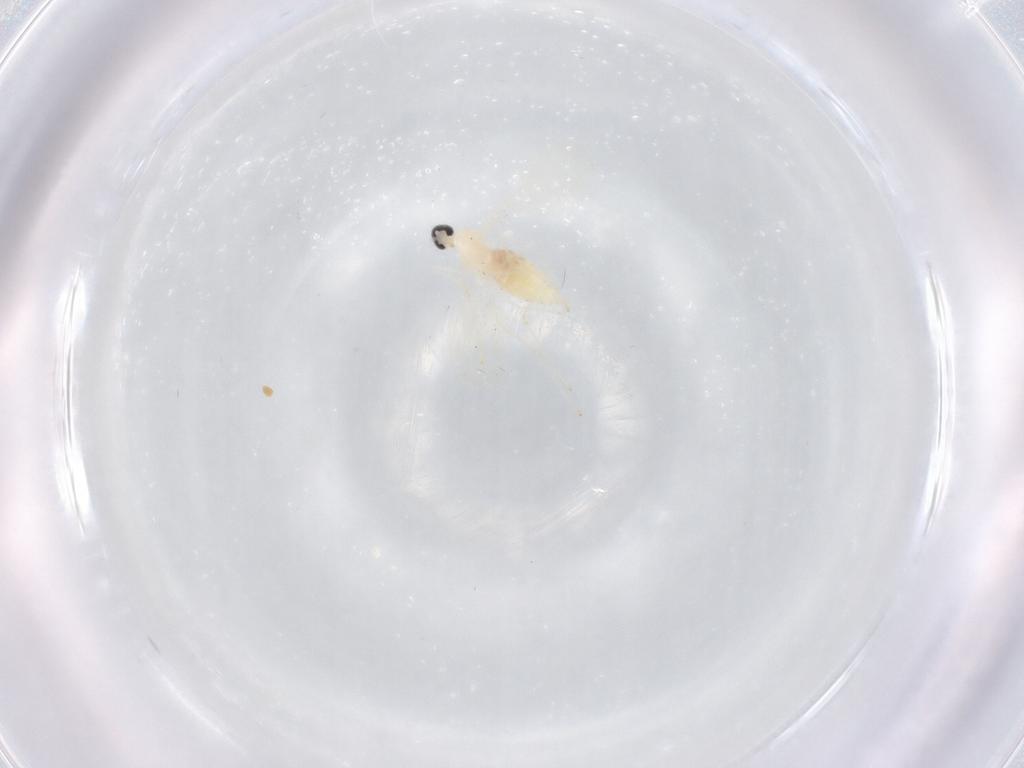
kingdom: Animalia
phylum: Arthropoda
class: Insecta
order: Diptera
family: Cecidomyiidae
